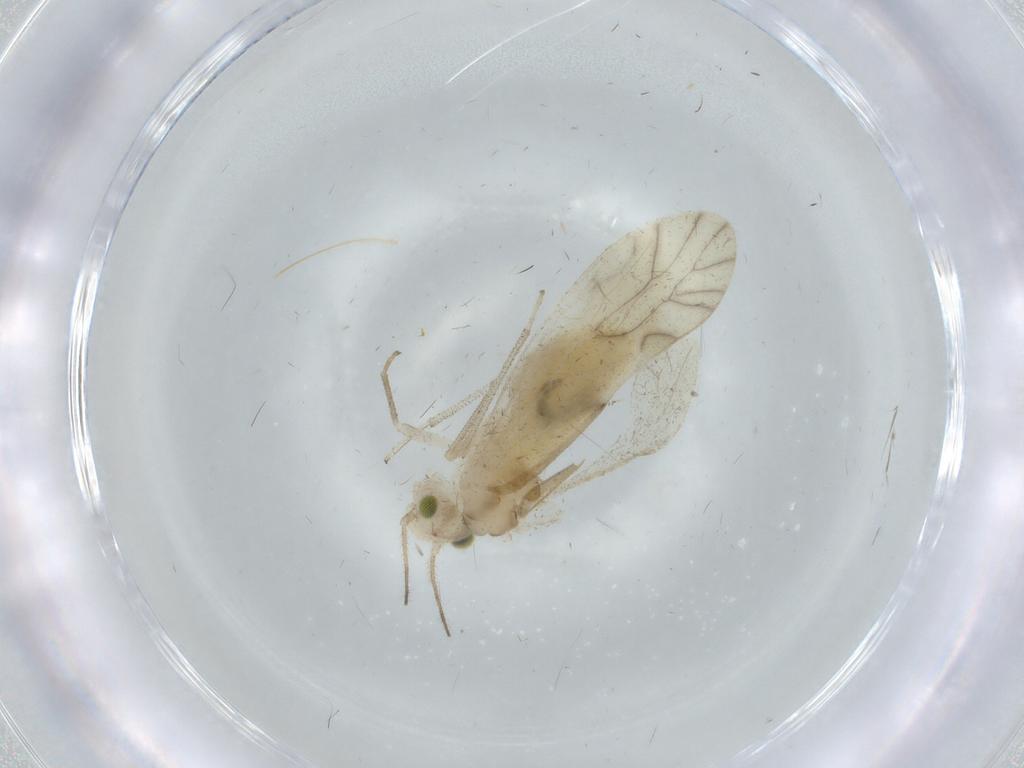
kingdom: Animalia
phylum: Arthropoda
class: Insecta
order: Psocodea
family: Caeciliusidae
